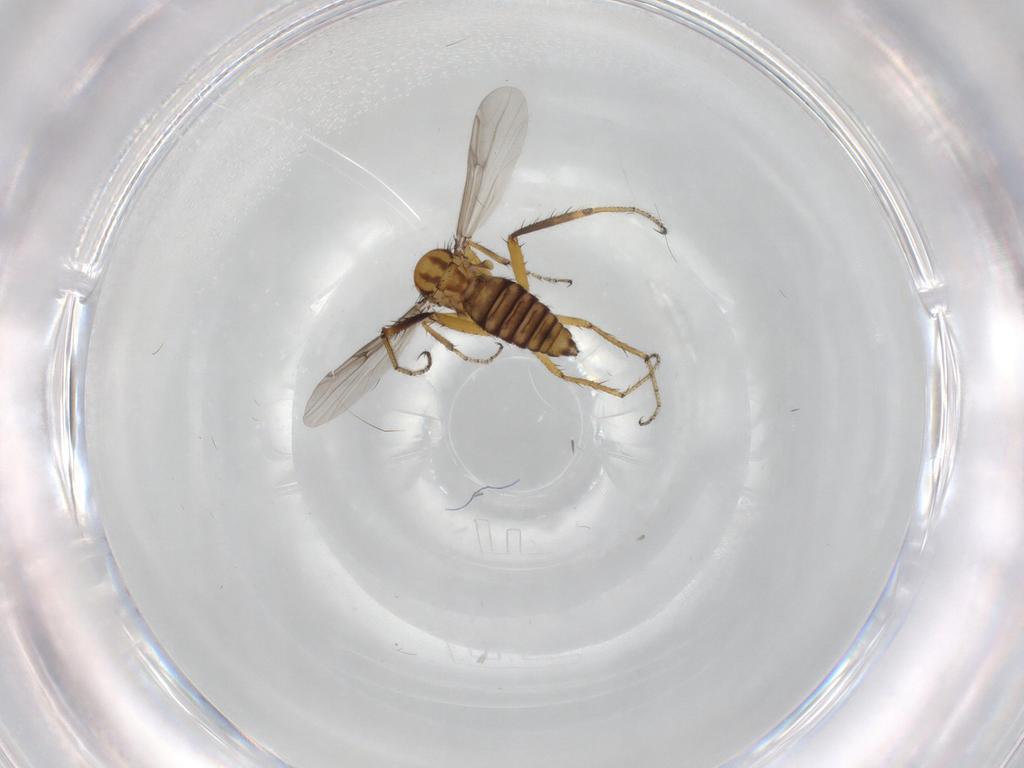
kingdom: Animalia
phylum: Arthropoda
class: Insecta
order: Diptera
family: Ceratopogonidae
